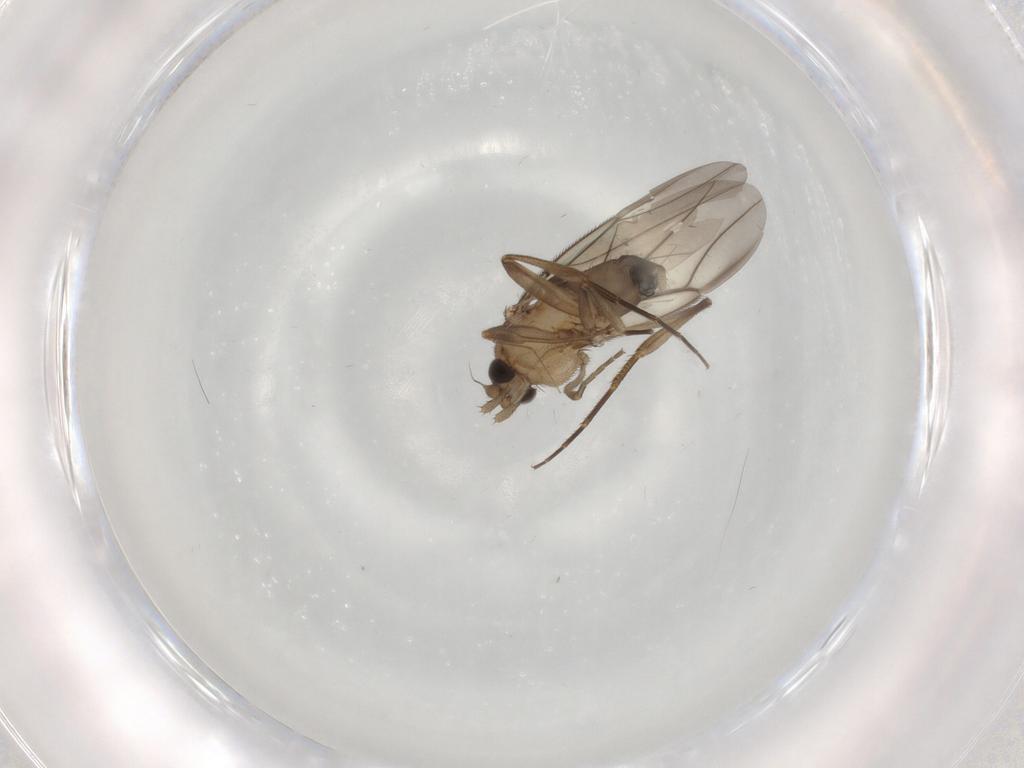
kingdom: Animalia
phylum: Arthropoda
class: Insecta
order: Diptera
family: Phoridae
